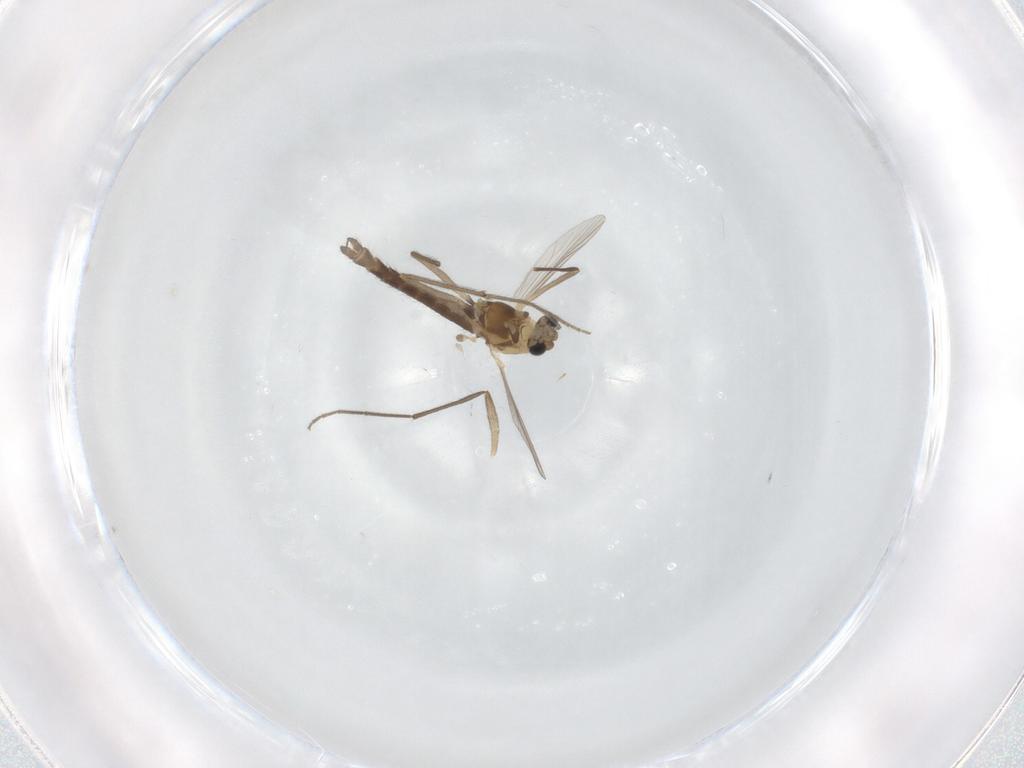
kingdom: Animalia
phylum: Arthropoda
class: Insecta
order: Diptera
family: Chironomidae
